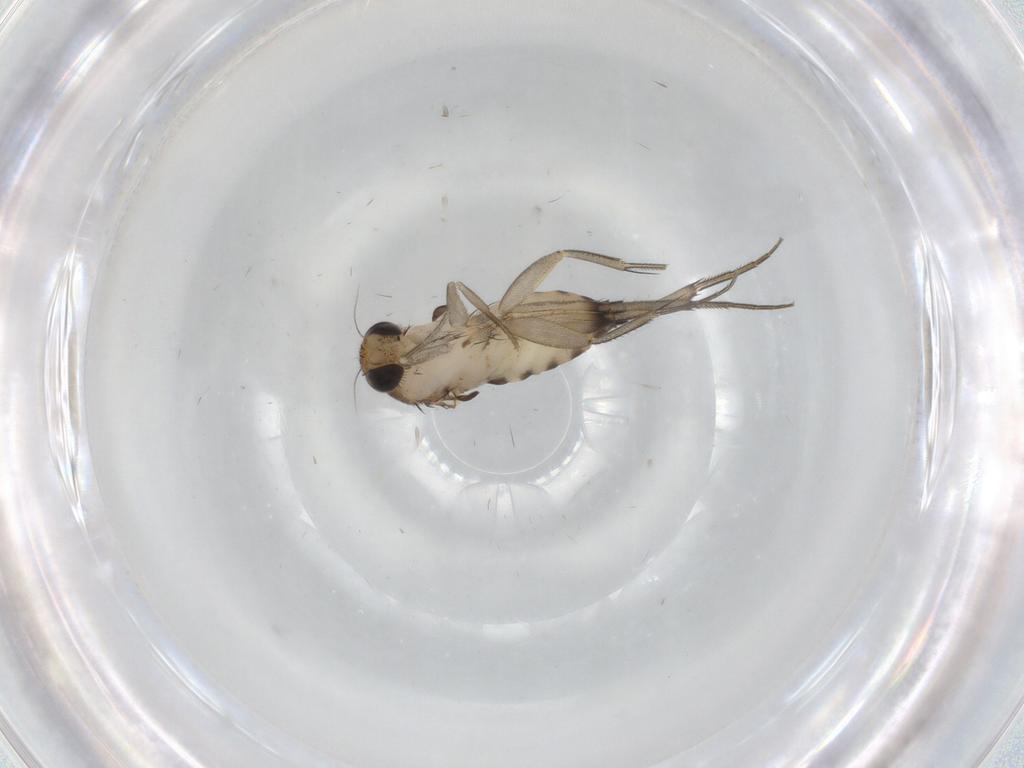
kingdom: Animalia
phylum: Arthropoda
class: Insecta
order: Diptera
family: Phoridae
